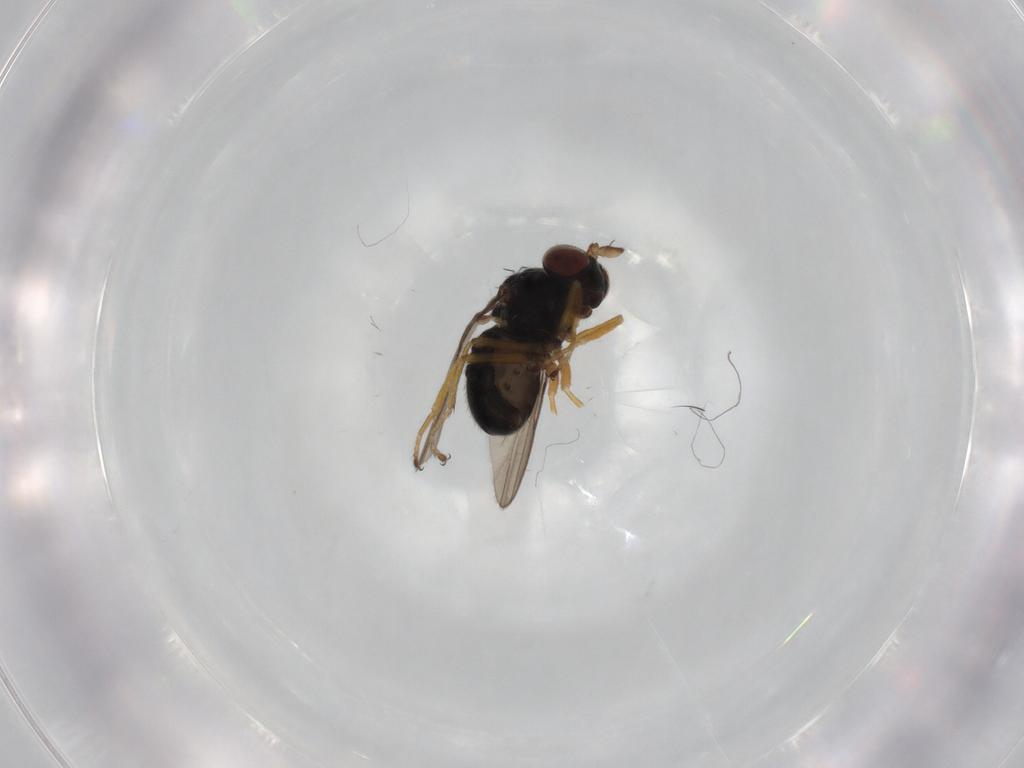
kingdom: Animalia
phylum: Arthropoda
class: Insecta
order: Diptera
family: Ephydridae
